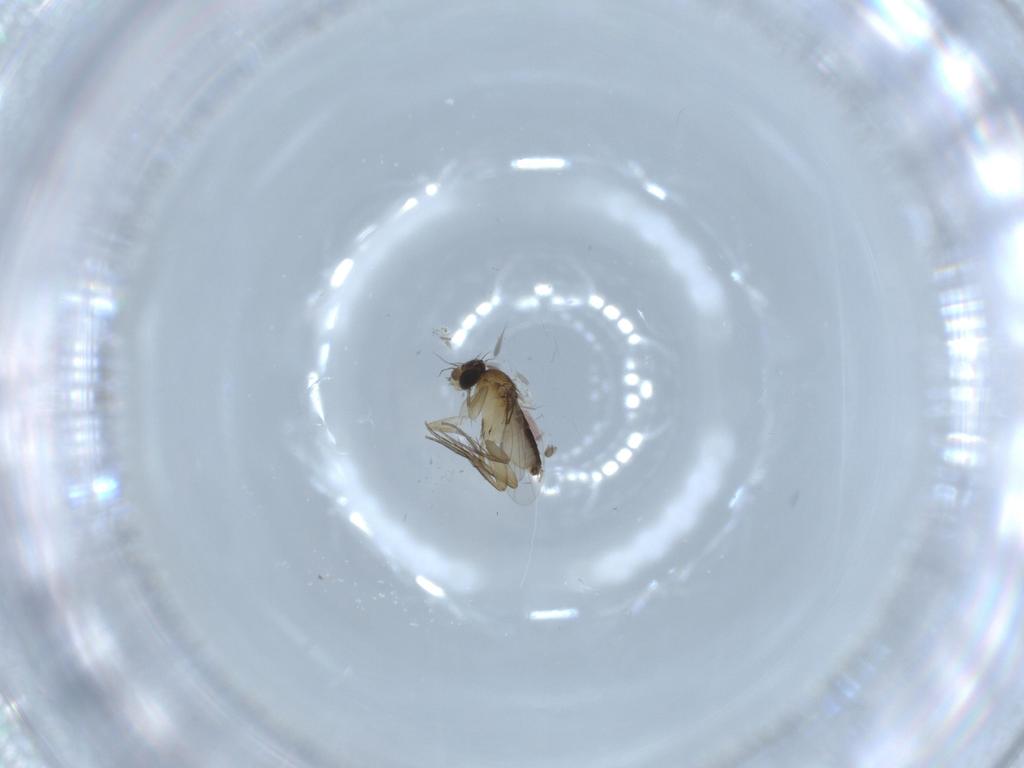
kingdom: Animalia
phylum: Arthropoda
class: Insecta
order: Diptera
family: Phoridae
